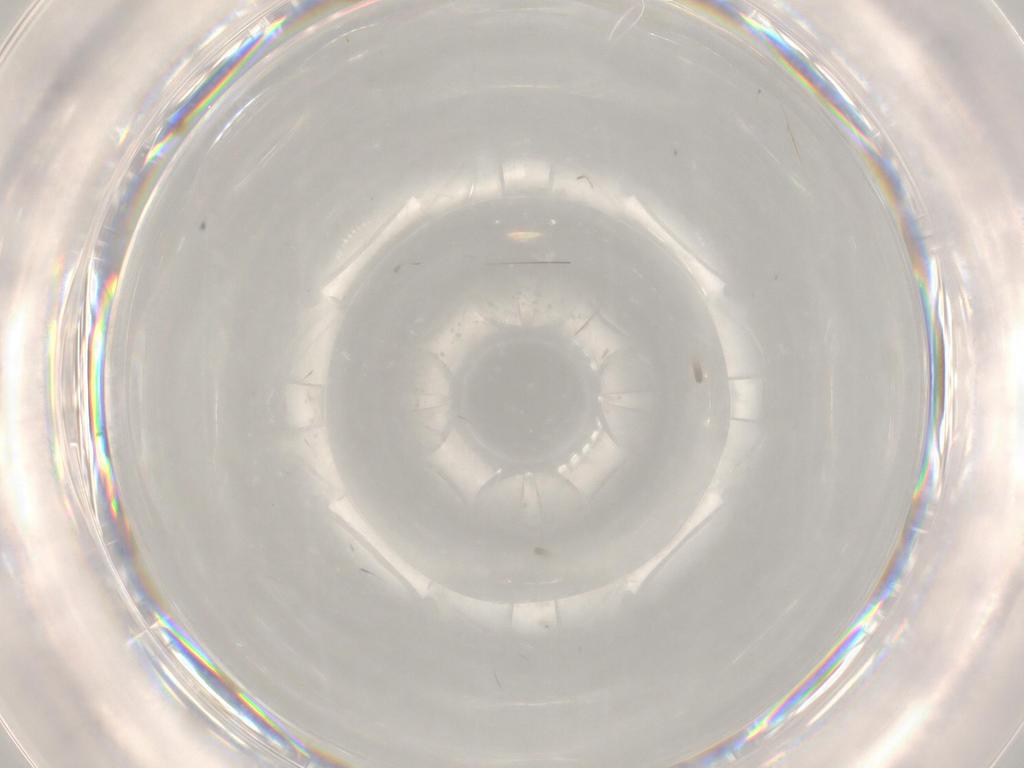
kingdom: Animalia
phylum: Arthropoda
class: Insecta
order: Diptera
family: Chironomidae
